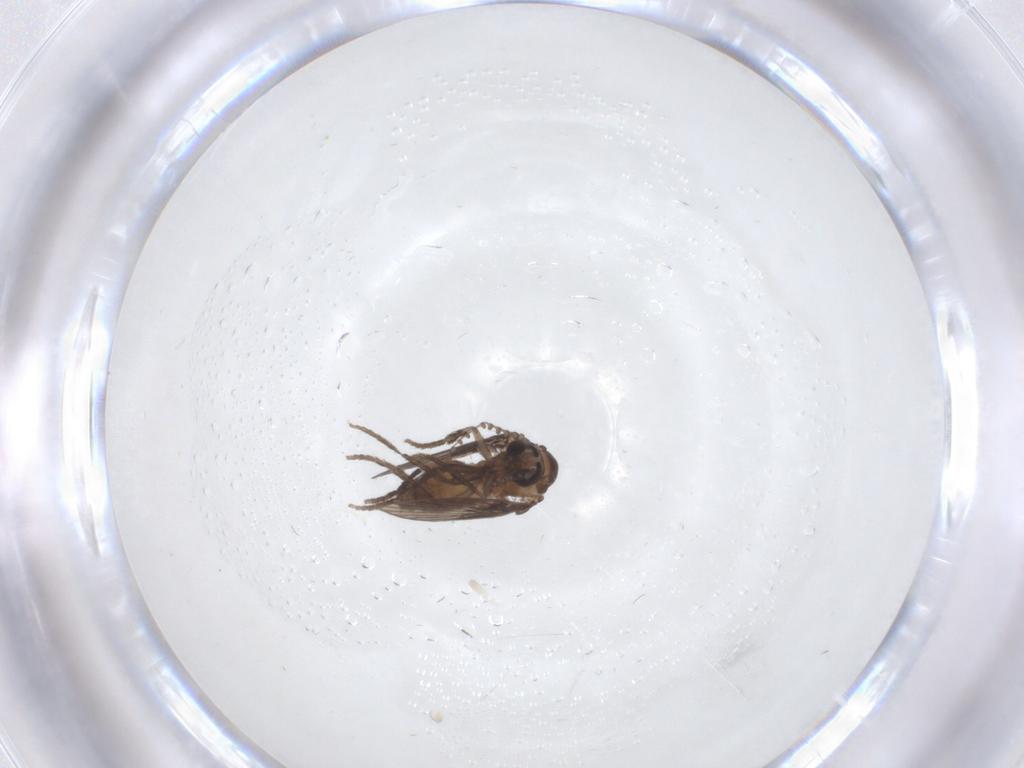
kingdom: Animalia
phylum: Arthropoda
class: Insecta
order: Diptera
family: Psychodidae
